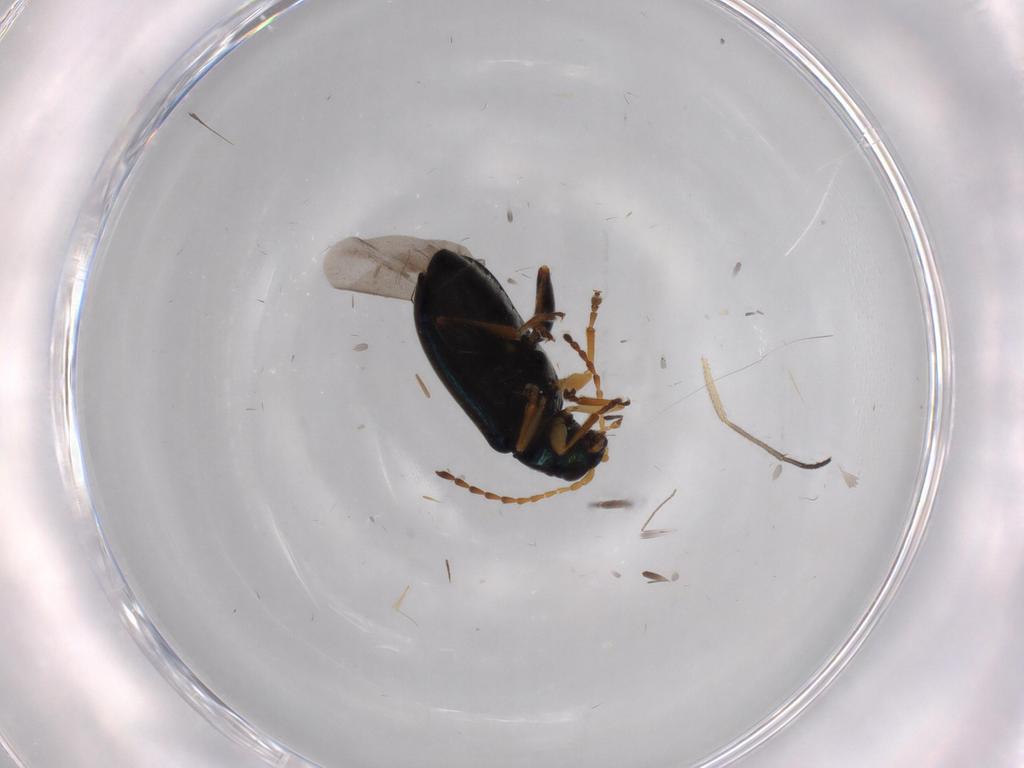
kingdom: Animalia
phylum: Arthropoda
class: Insecta
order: Coleoptera
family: Chrysomelidae
